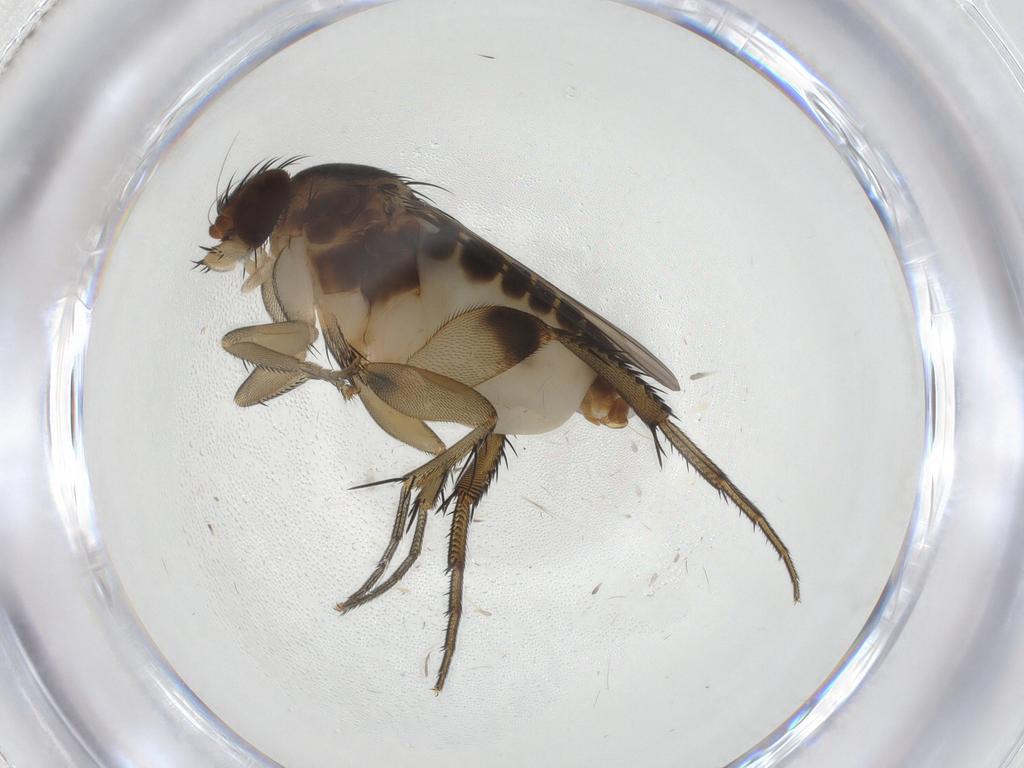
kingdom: Animalia
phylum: Arthropoda
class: Insecta
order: Diptera
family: Phoridae
